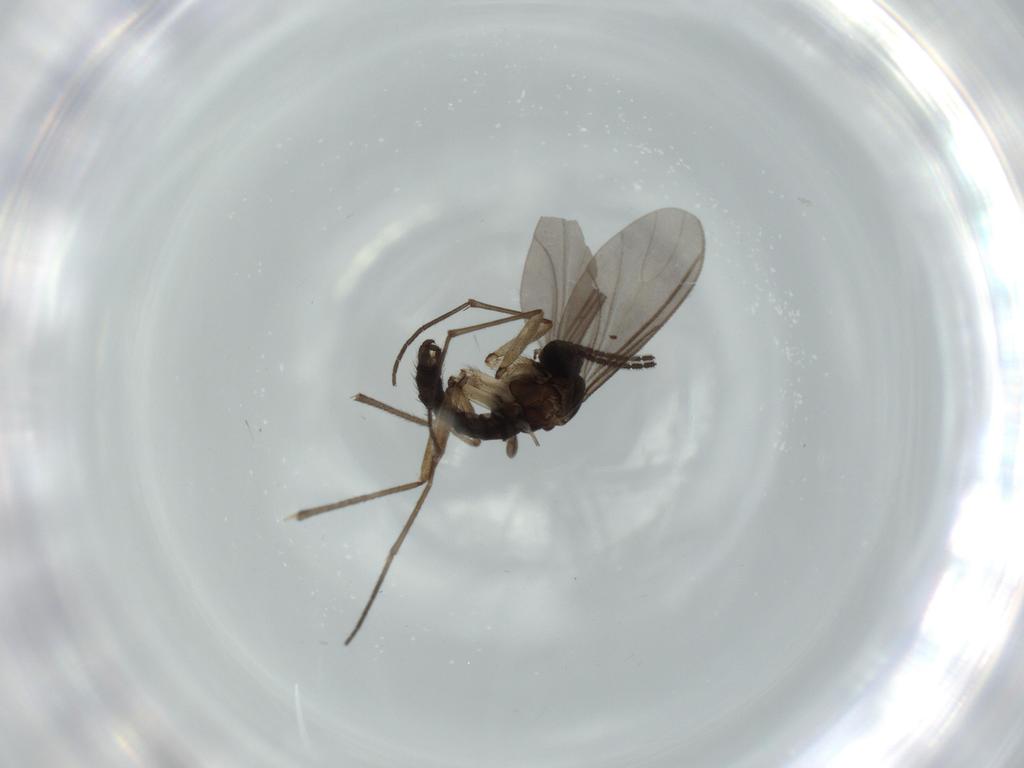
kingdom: Animalia
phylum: Arthropoda
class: Insecta
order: Diptera
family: Sciaridae
